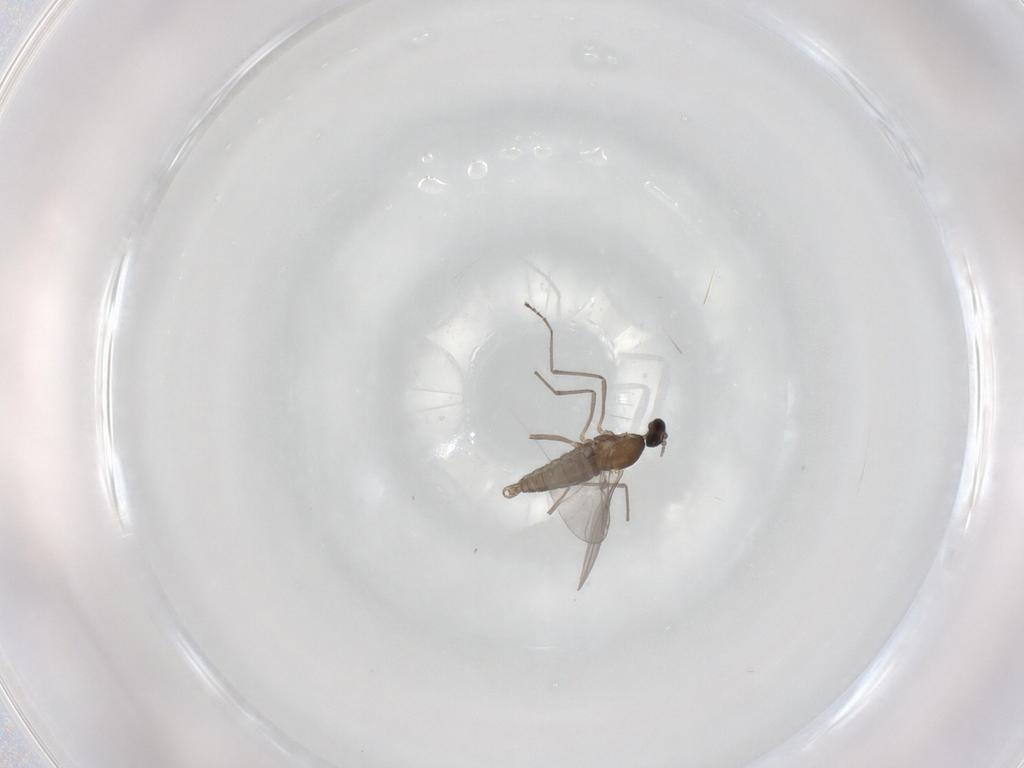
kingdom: Animalia
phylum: Arthropoda
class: Insecta
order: Diptera
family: Cecidomyiidae
